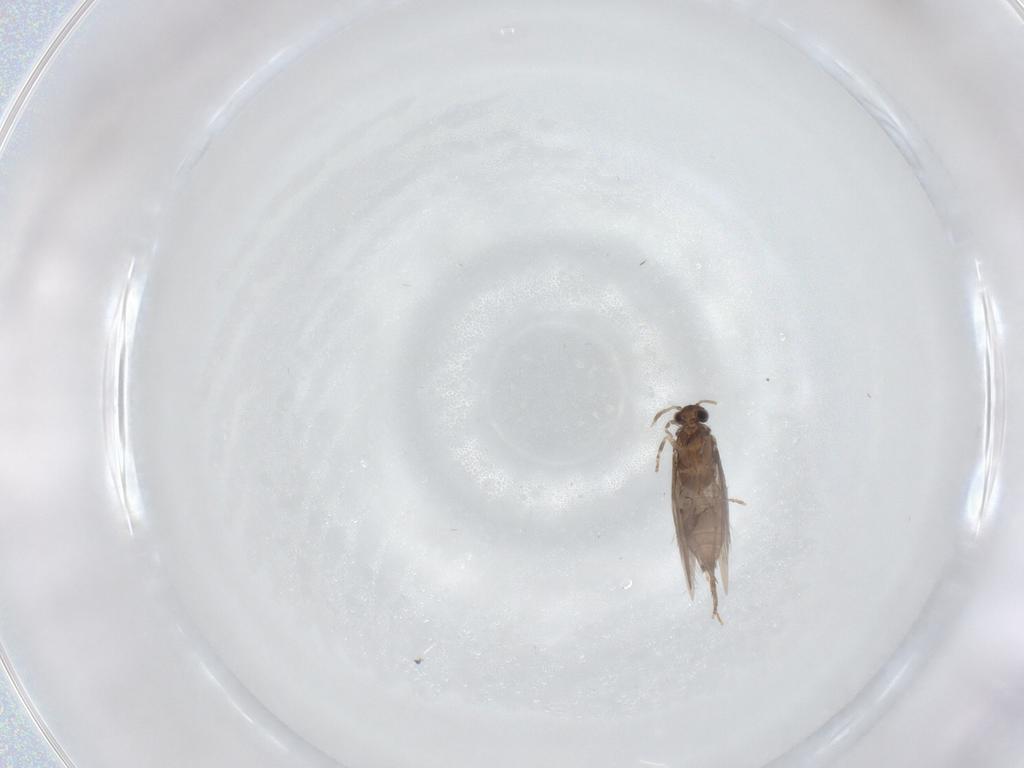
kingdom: Animalia
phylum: Arthropoda
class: Insecta
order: Trichoptera
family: Hydroptilidae
